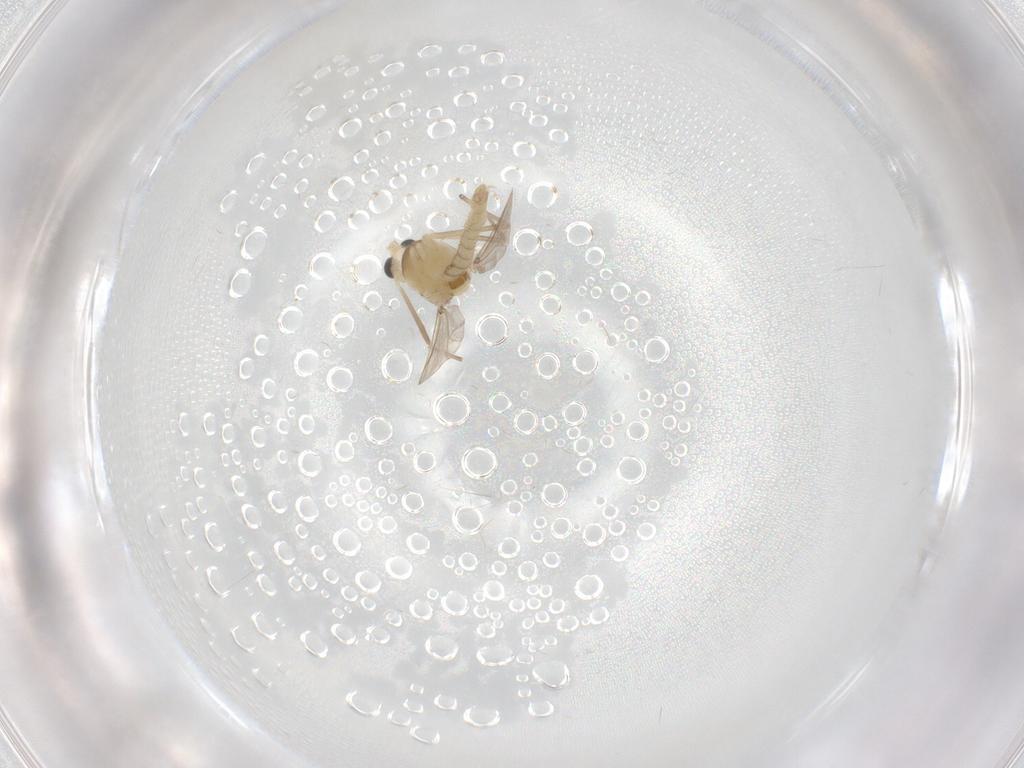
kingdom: Animalia
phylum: Arthropoda
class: Insecta
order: Diptera
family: Chironomidae
